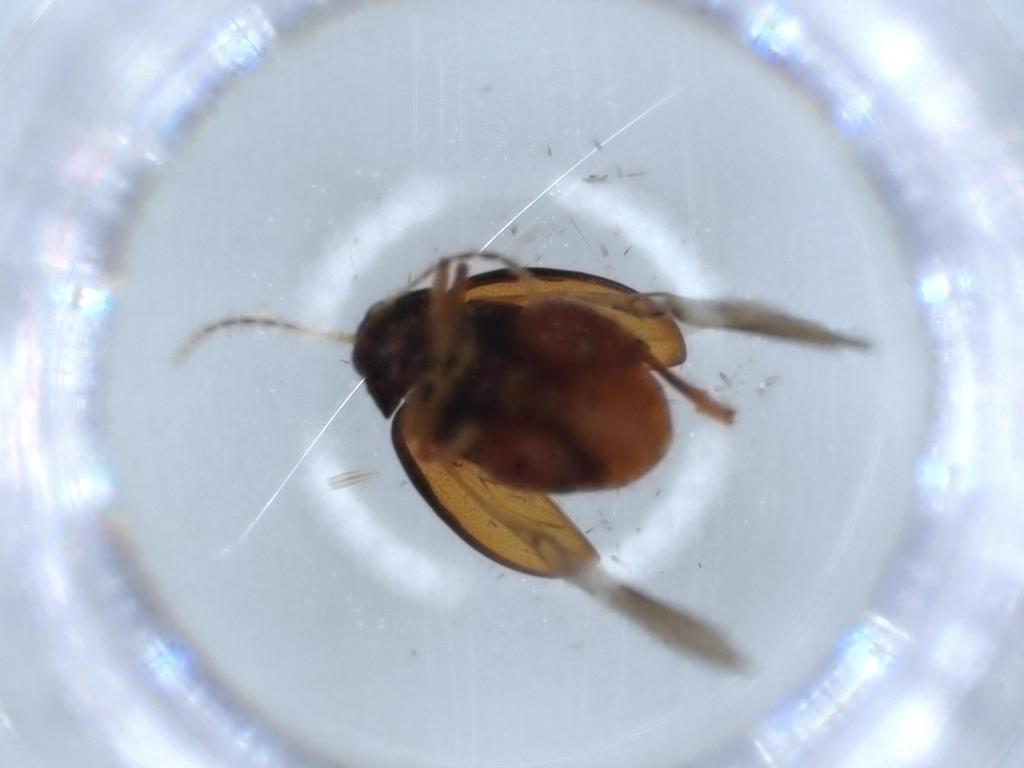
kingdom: Animalia
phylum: Arthropoda
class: Insecta
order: Coleoptera
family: Chrysomelidae
